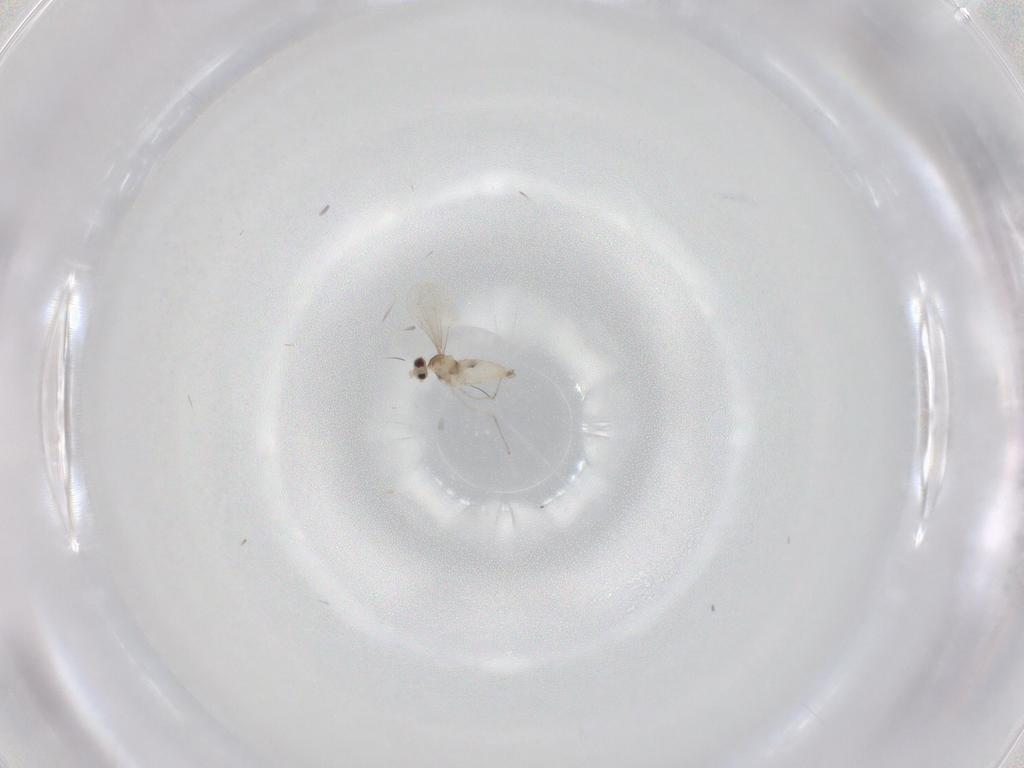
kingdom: Animalia
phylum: Arthropoda
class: Insecta
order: Diptera
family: Cecidomyiidae
